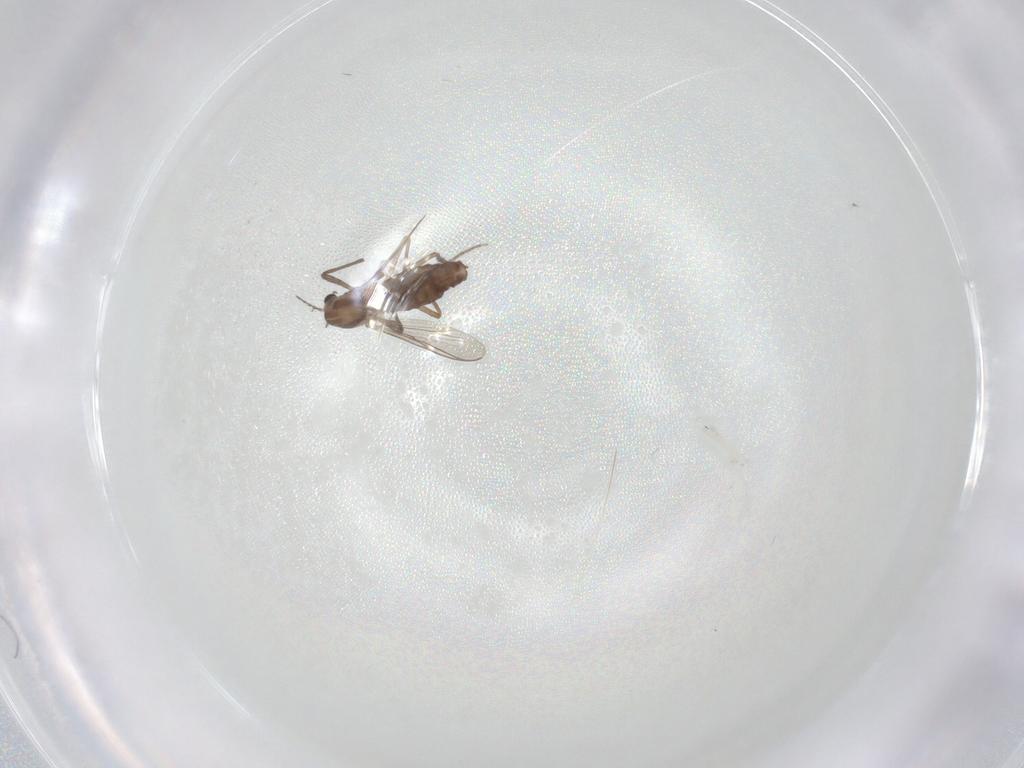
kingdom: Animalia
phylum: Arthropoda
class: Insecta
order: Diptera
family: Chironomidae
